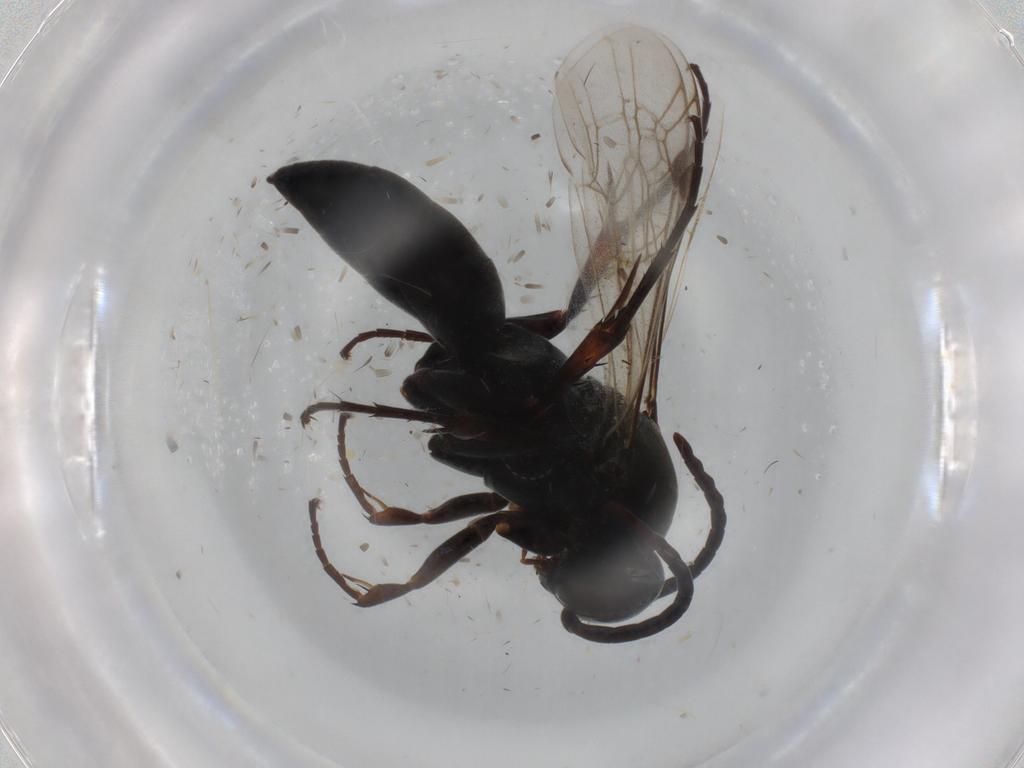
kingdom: Animalia
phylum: Arthropoda
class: Insecta
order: Hymenoptera
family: Pompilidae
